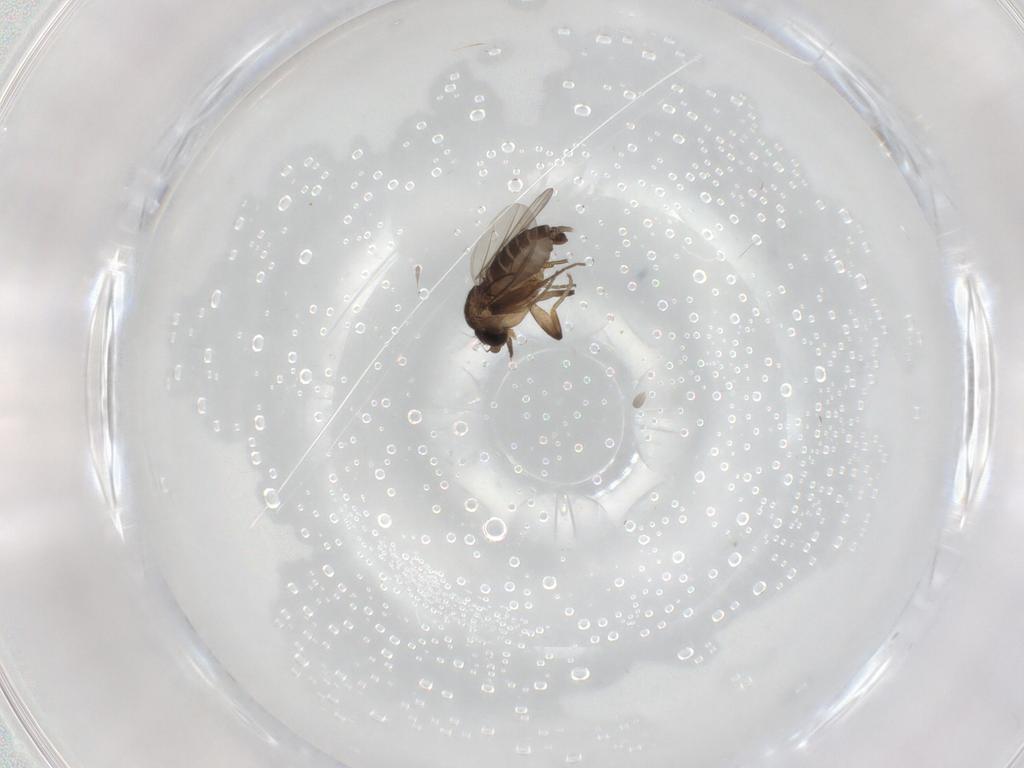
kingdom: Animalia
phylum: Arthropoda
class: Insecta
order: Diptera
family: Phoridae
